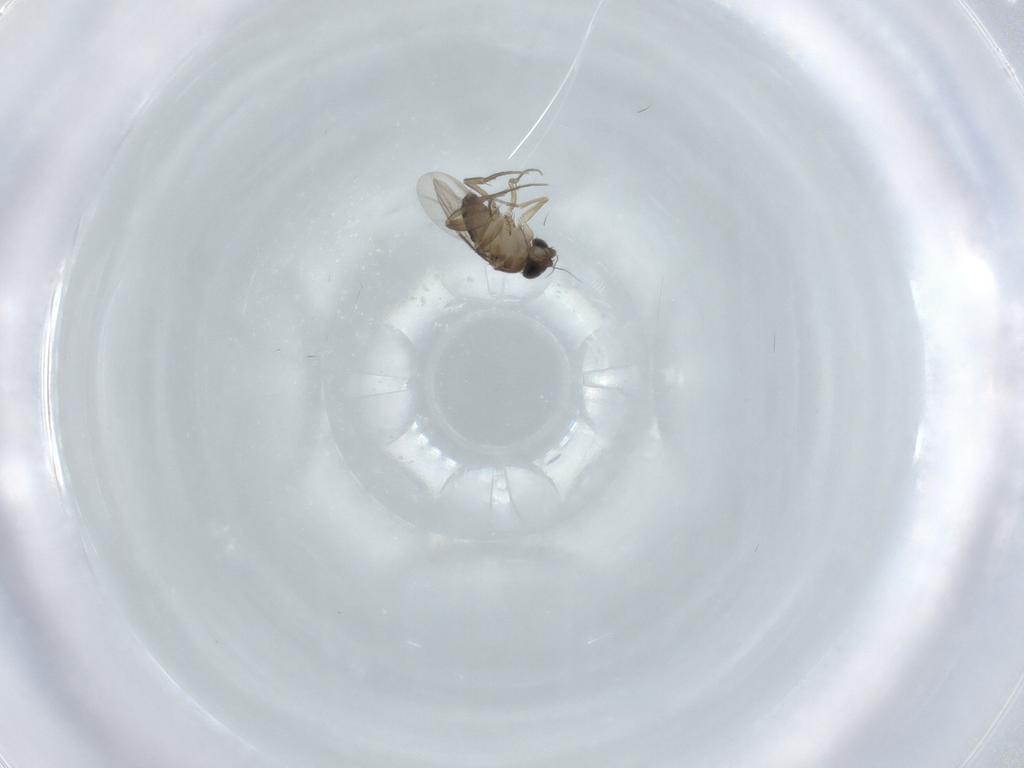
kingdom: Animalia
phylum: Arthropoda
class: Insecta
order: Diptera
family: Phoridae
